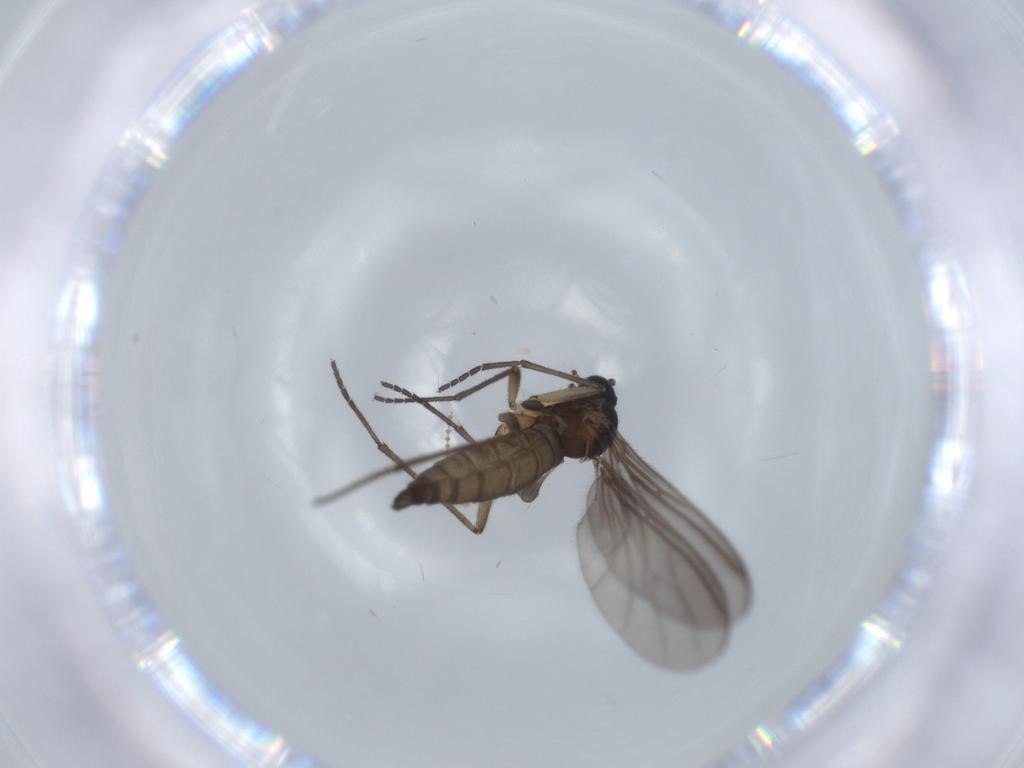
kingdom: Animalia
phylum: Arthropoda
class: Insecta
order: Diptera
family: Sciaridae
